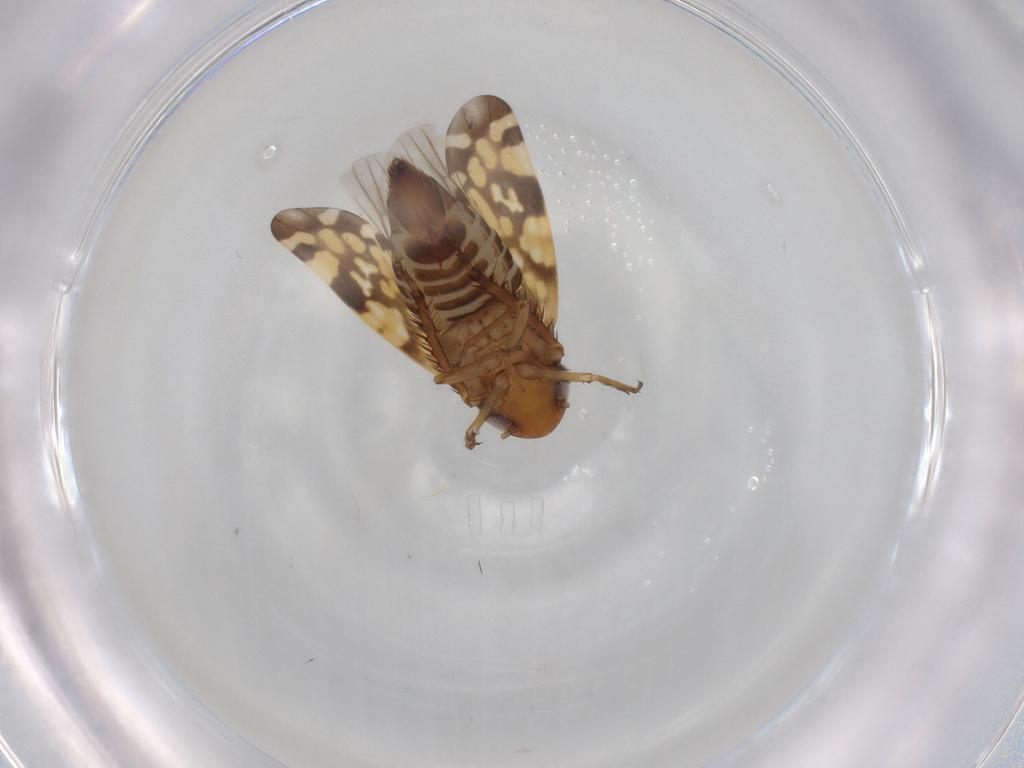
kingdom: Animalia
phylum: Arthropoda
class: Insecta
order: Hemiptera
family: Cicadellidae
